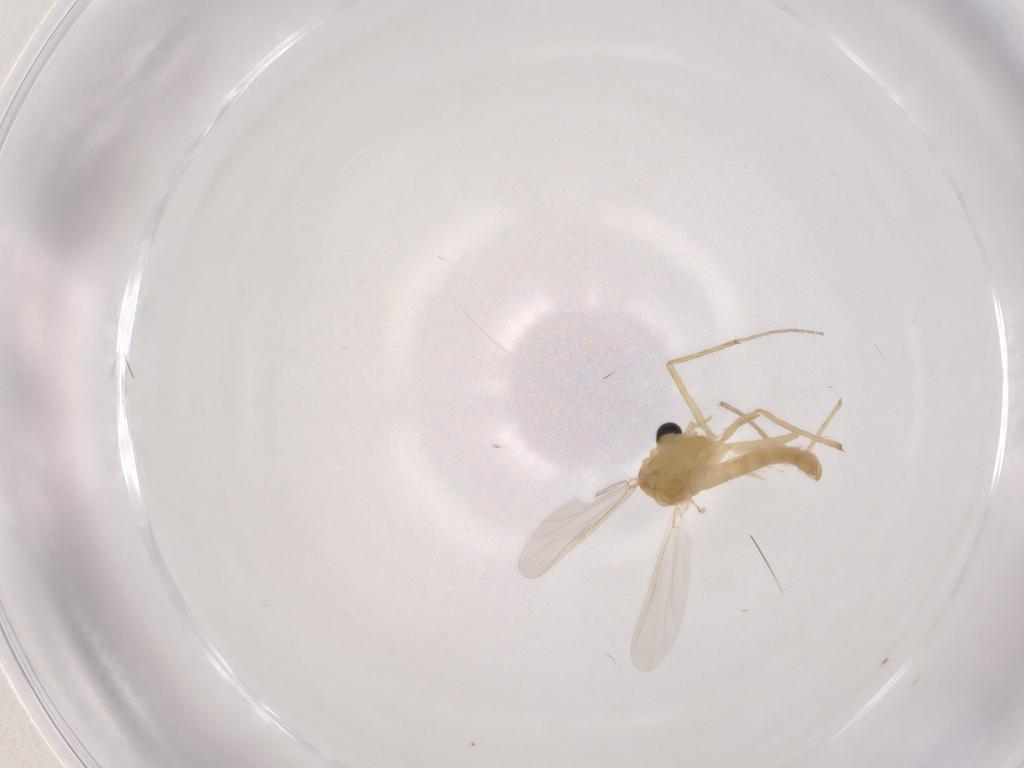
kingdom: Animalia
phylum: Arthropoda
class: Insecta
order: Diptera
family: Chironomidae
